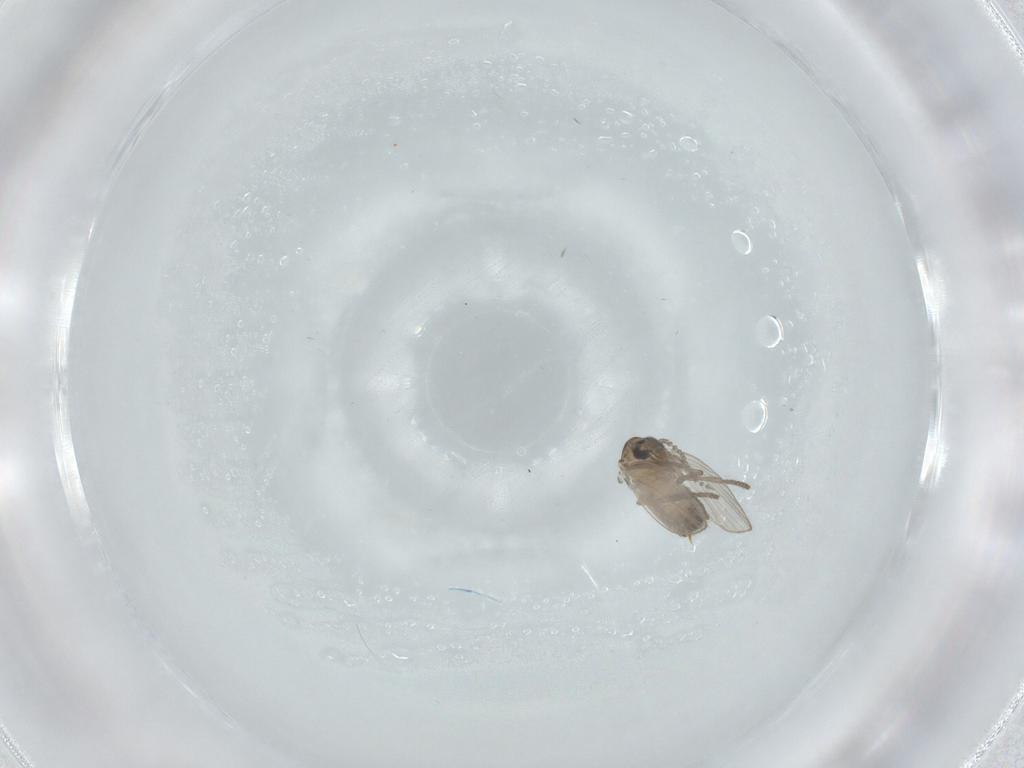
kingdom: Animalia
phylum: Arthropoda
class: Insecta
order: Diptera
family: Psychodidae
